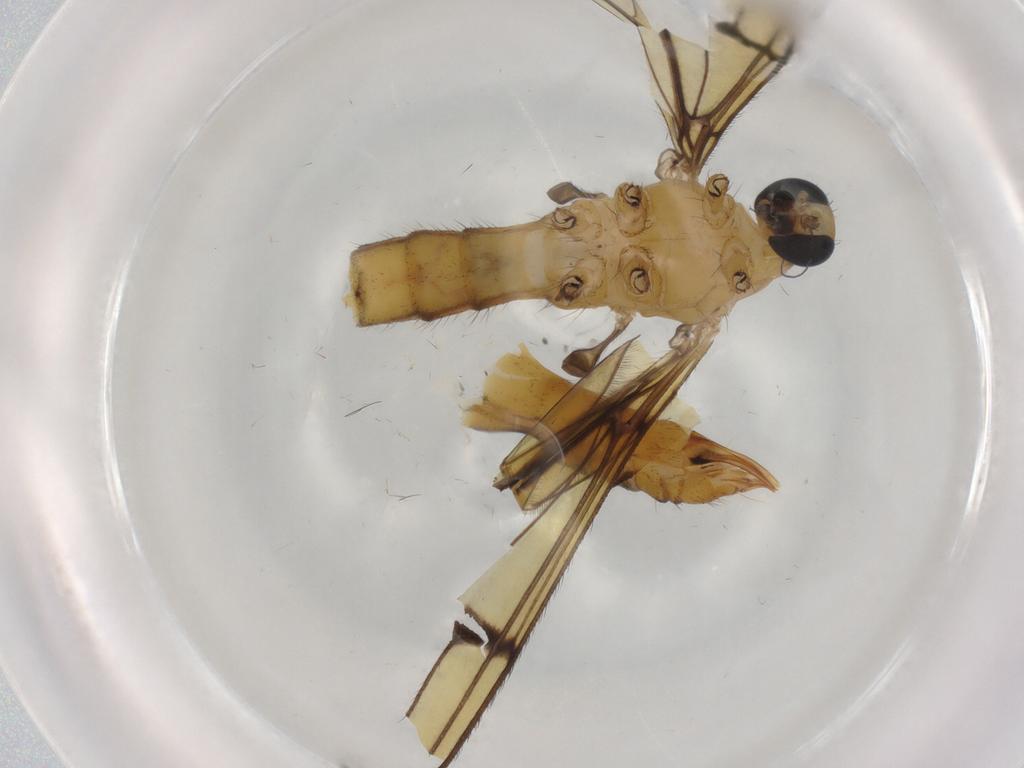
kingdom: Animalia
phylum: Arthropoda
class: Insecta
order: Diptera
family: Limoniidae
